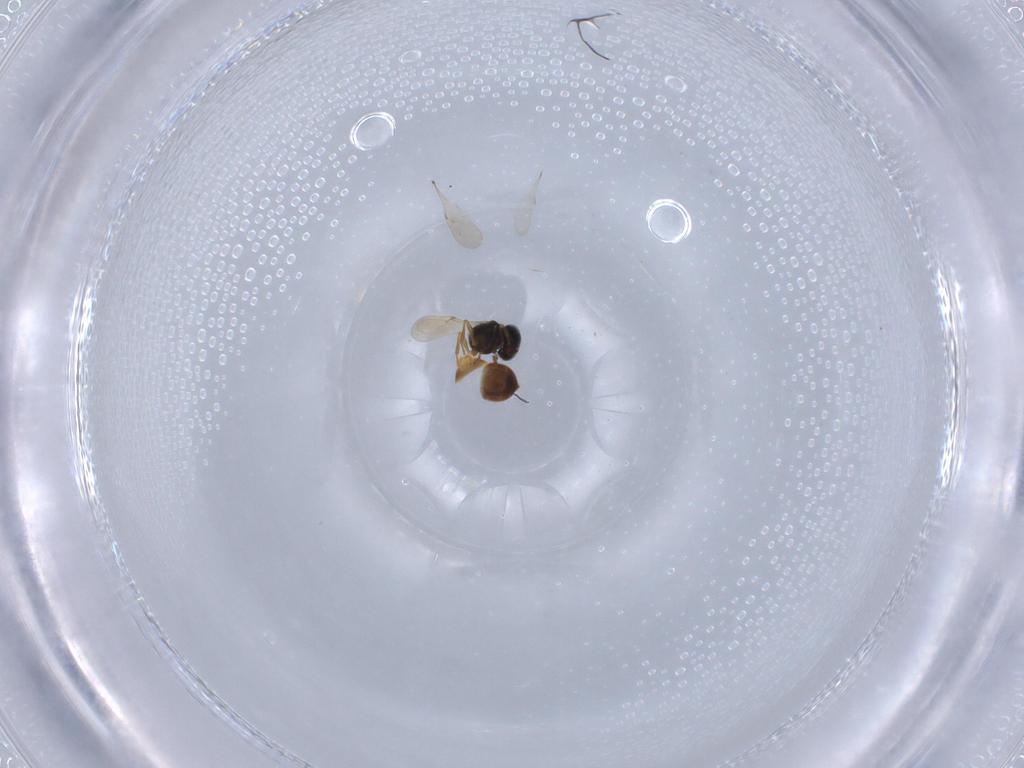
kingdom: Animalia
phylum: Arthropoda
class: Insecta
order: Hymenoptera
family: Scelionidae
